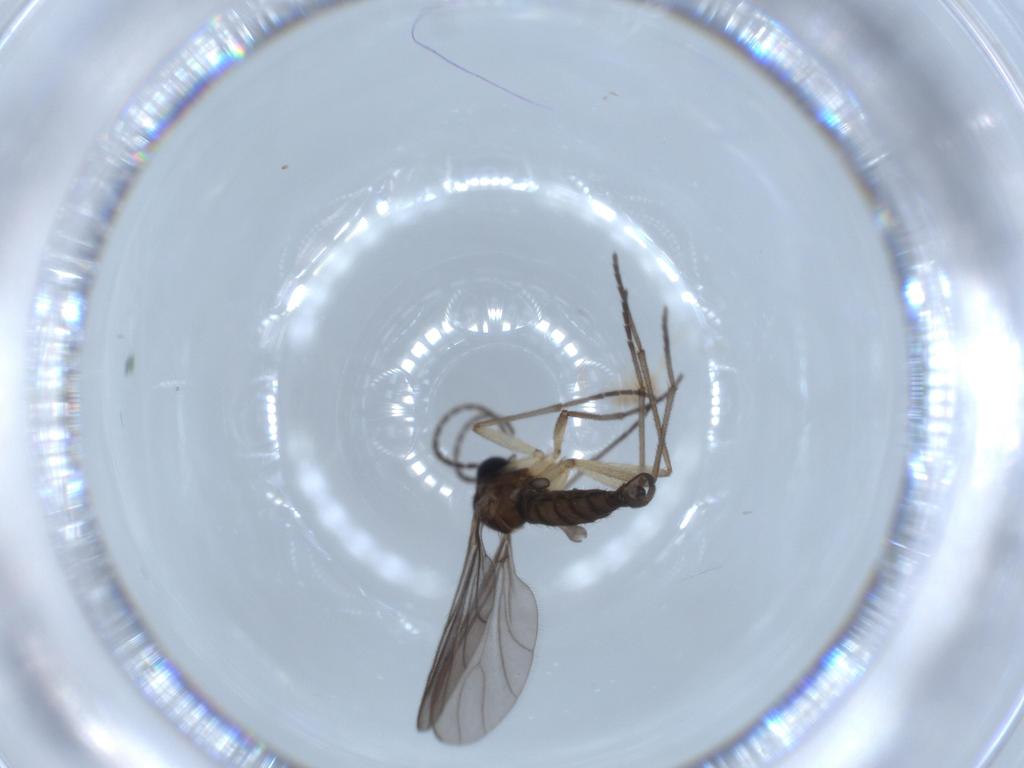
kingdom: Animalia
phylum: Arthropoda
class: Insecta
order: Diptera
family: Sciaridae
